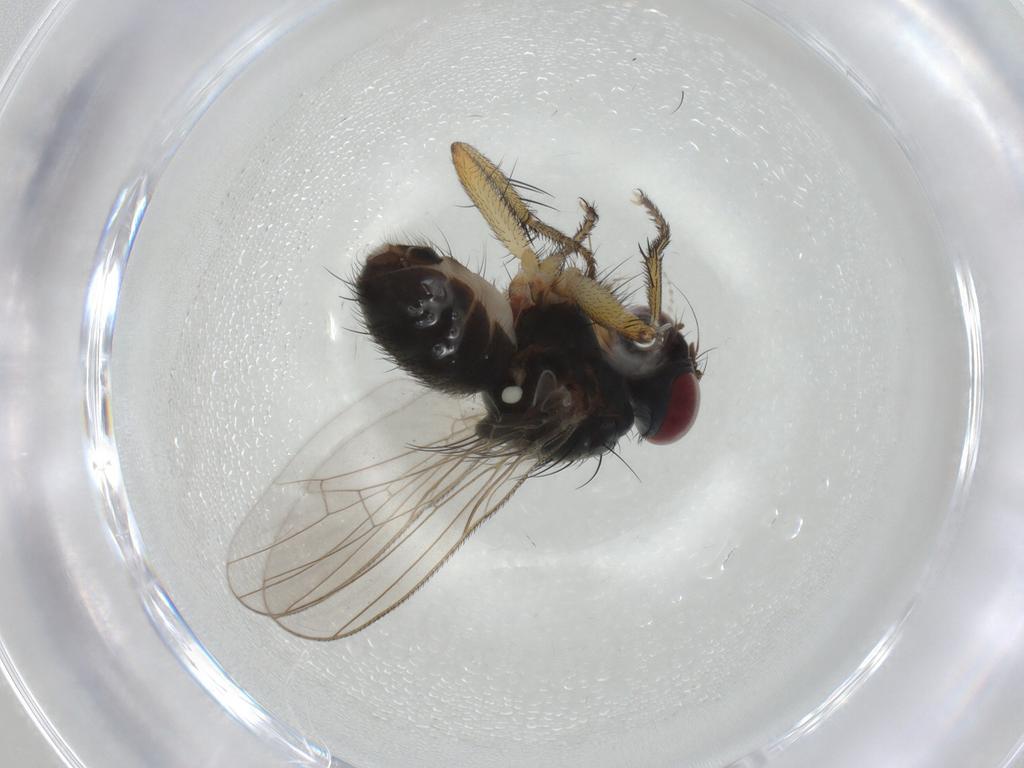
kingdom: Animalia
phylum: Arthropoda
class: Insecta
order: Diptera
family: Muscidae
